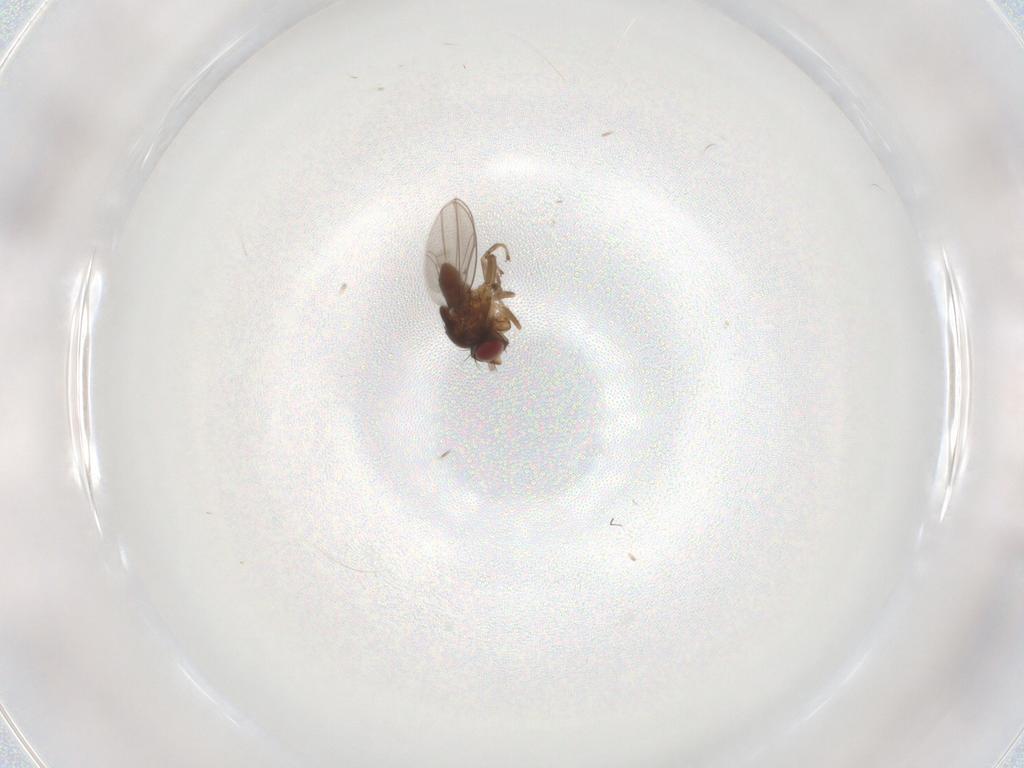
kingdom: Animalia
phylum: Arthropoda
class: Insecta
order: Diptera
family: Ephydridae
